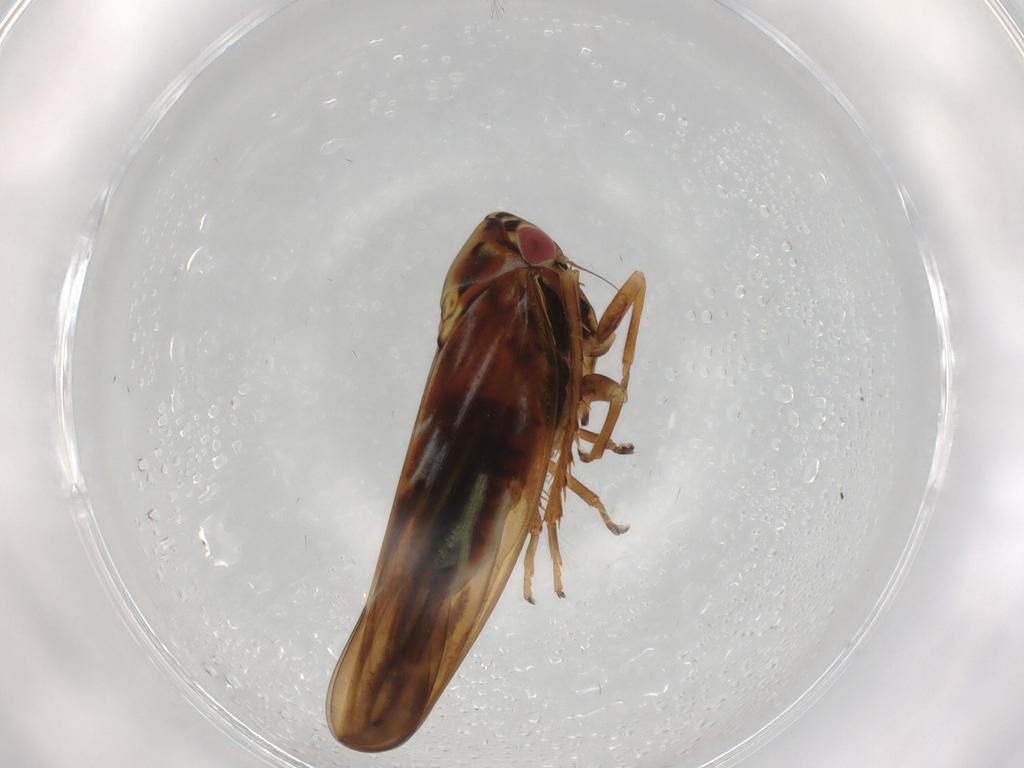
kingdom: Animalia
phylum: Arthropoda
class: Insecta
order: Hemiptera
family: Cicadellidae
